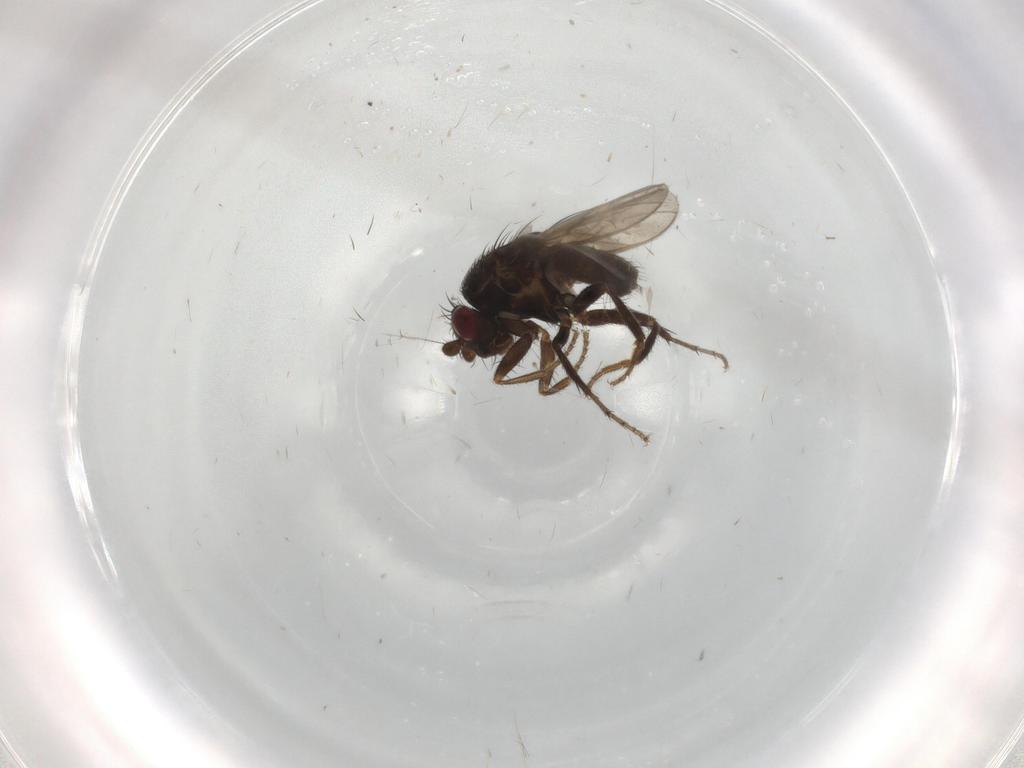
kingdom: Animalia
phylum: Arthropoda
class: Insecta
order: Diptera
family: Sphaeroceridae
